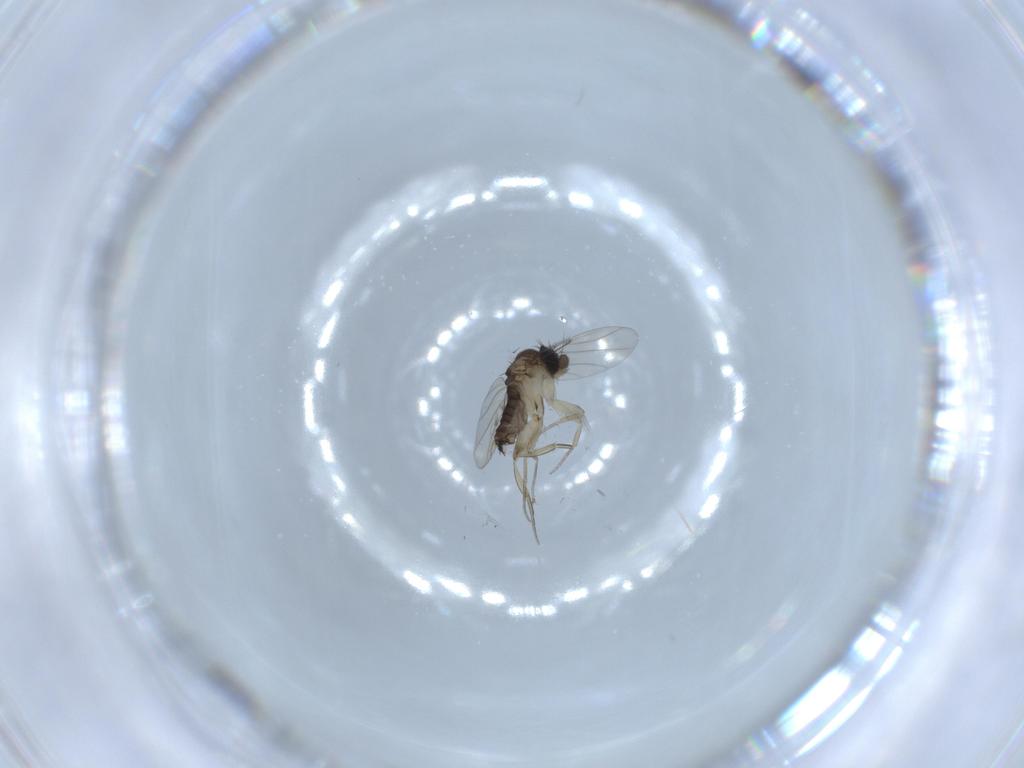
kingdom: Animalia
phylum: Arthropoda
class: Insecta
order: Diptera
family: Phoridae
